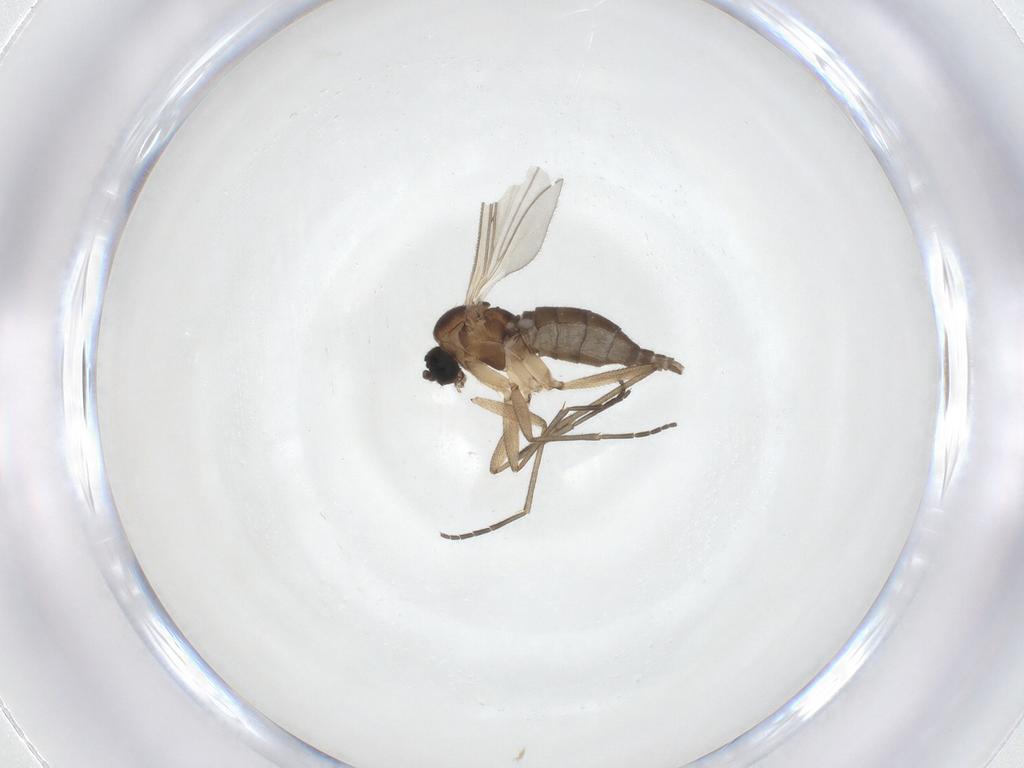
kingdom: Animalia
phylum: Arthropoda
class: Insecta
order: Diptera
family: Sciaridae
